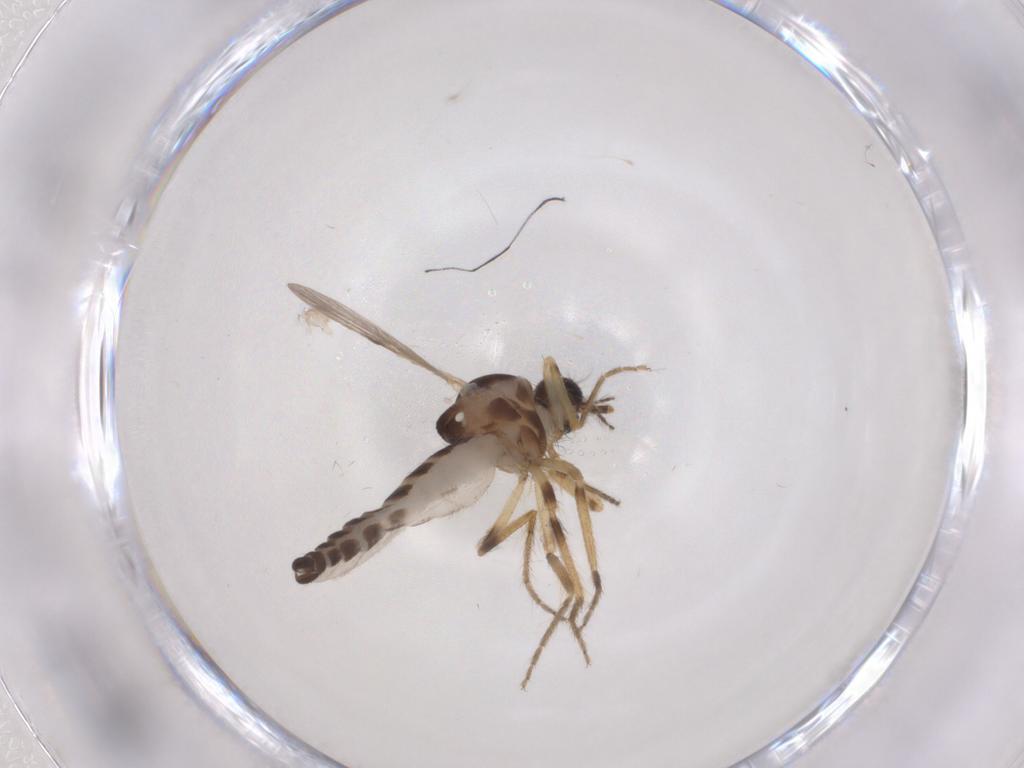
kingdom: Animalia
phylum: Arthropoda
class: Insecta
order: Diptera
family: Ceratopogonidae
